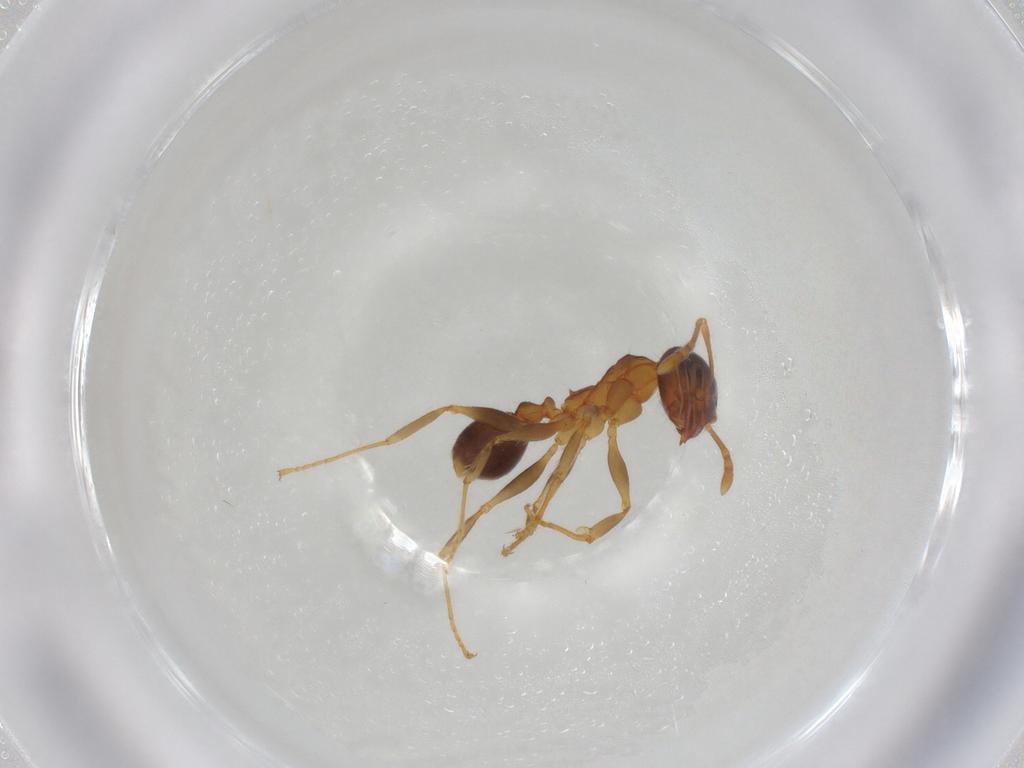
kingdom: Animalia
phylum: Arthropoda
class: Insecta
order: Hymenoptera
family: Formicidae
